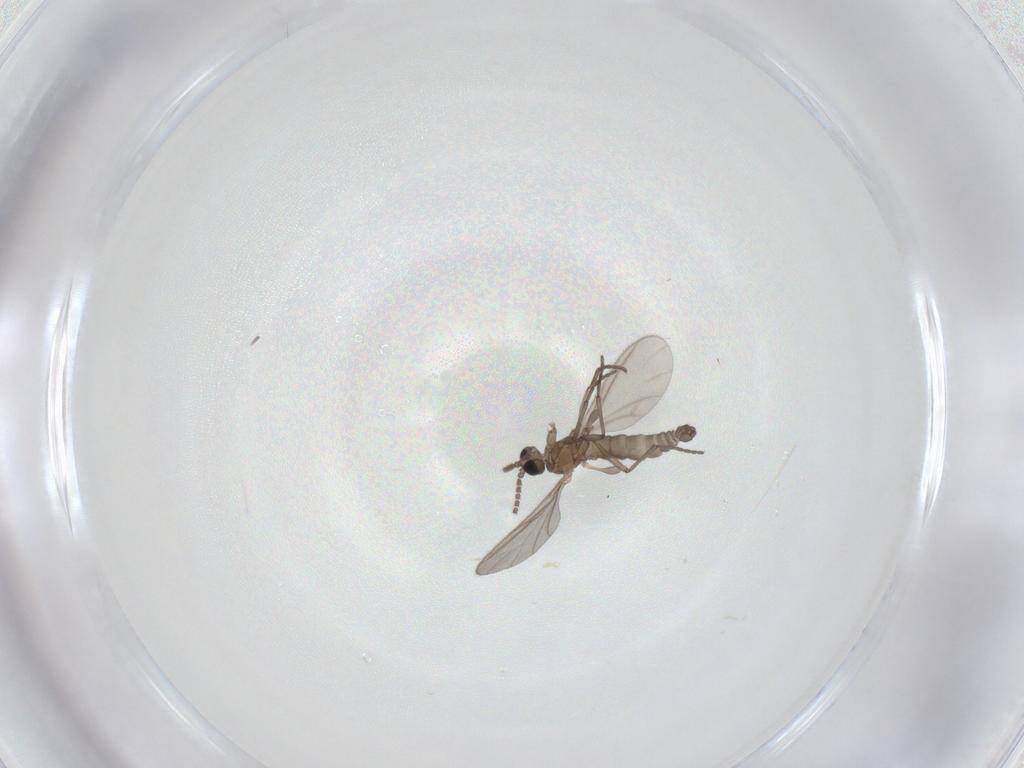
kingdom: Animalia
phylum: Arthropoda
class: Insecta
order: Diptera
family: Sciaridae
